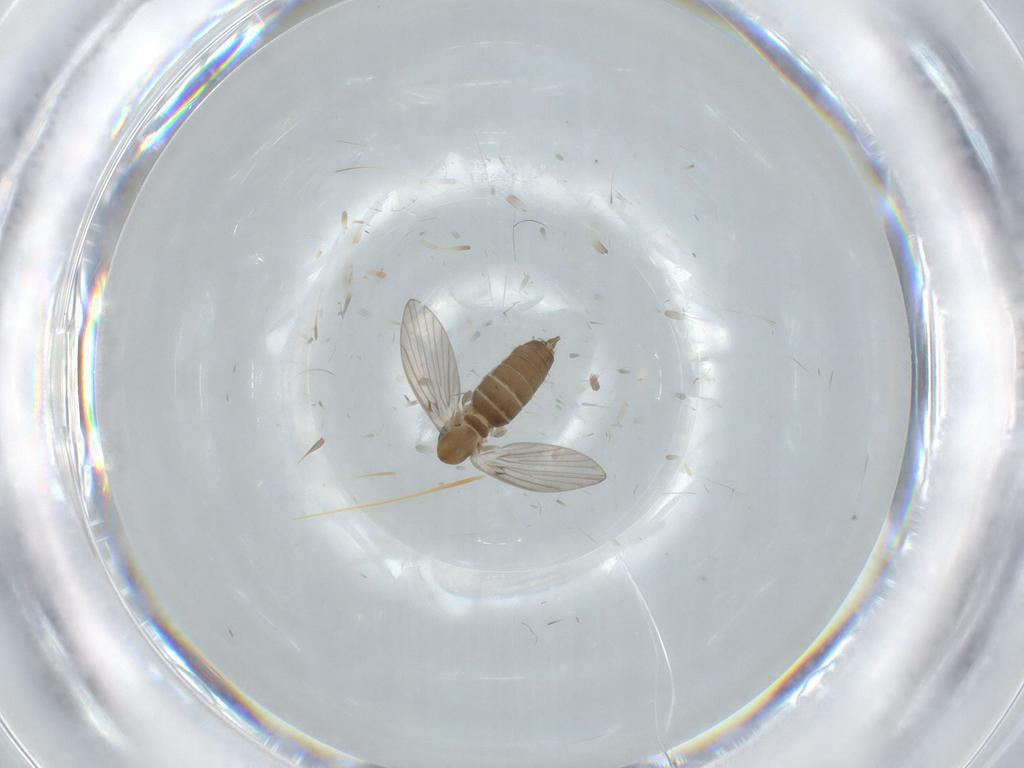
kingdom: Animalia
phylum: Arthropoda
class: Insecta
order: Diptera
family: Psychodidae
